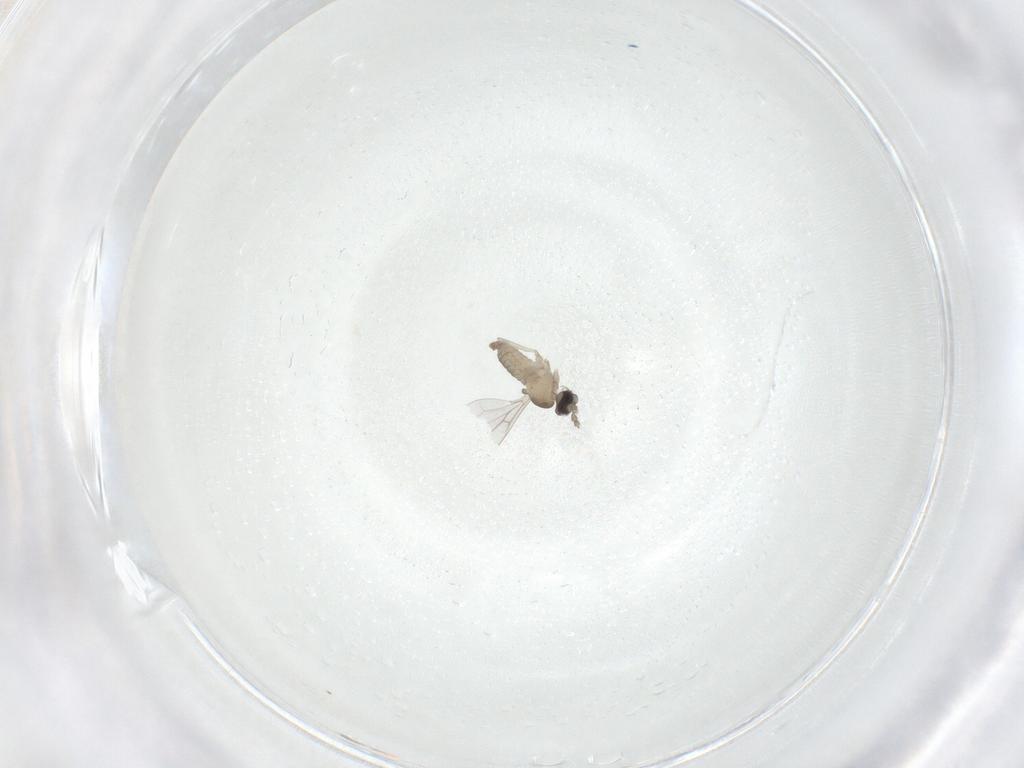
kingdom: Animalia
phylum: Arthropoda
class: Insecta
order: Diptera
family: Cecidomyiidae
